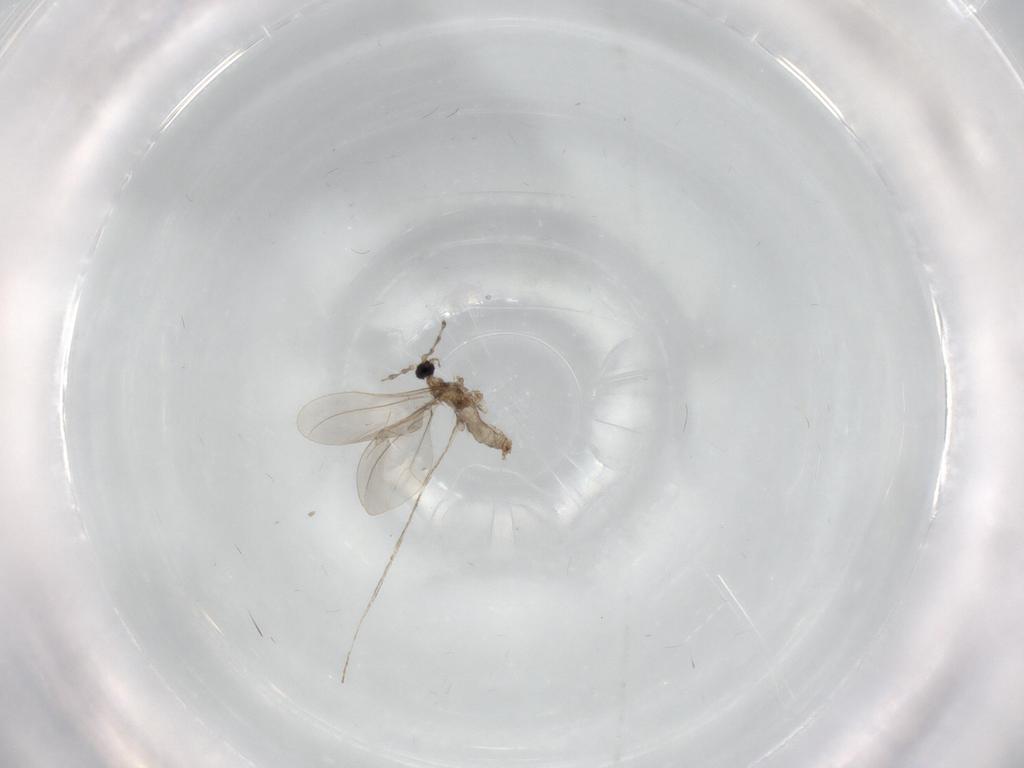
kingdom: Animalia
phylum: Arthropoda
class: Insecta
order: Diptera
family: Cecidomyiidae
